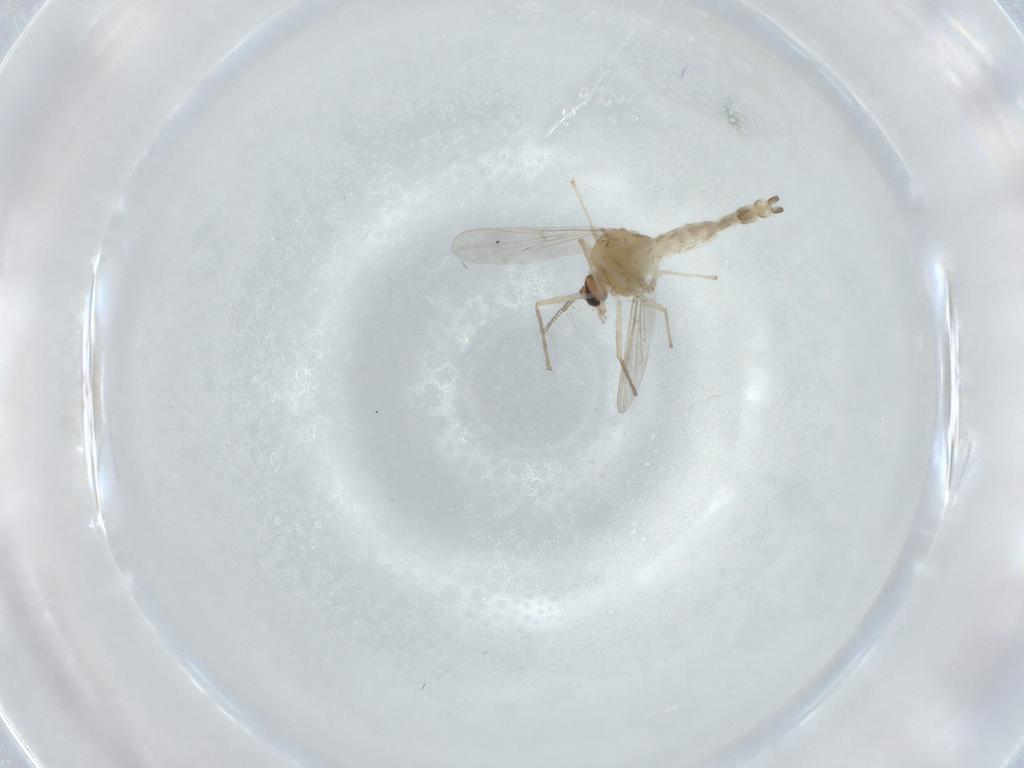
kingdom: Animalia
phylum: Arthropoda
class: Insecta
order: Diptera
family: Chironomidae
